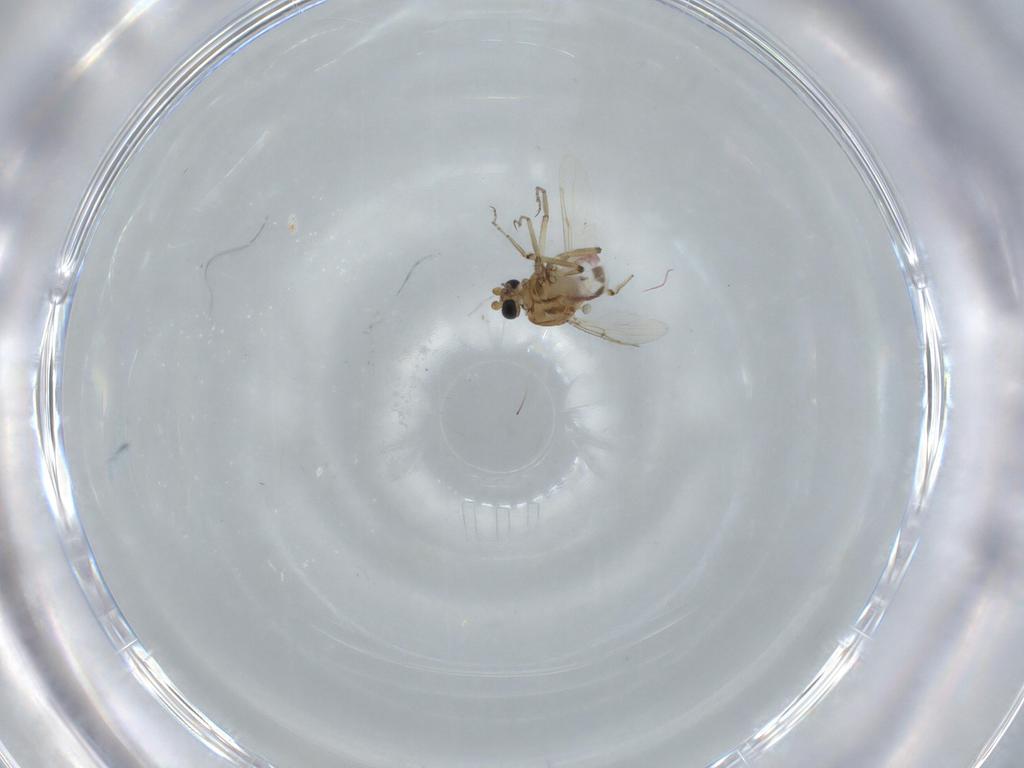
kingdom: Animalia
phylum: Arthropoda
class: Insecta
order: Diptera
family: Ceratopogonidae
